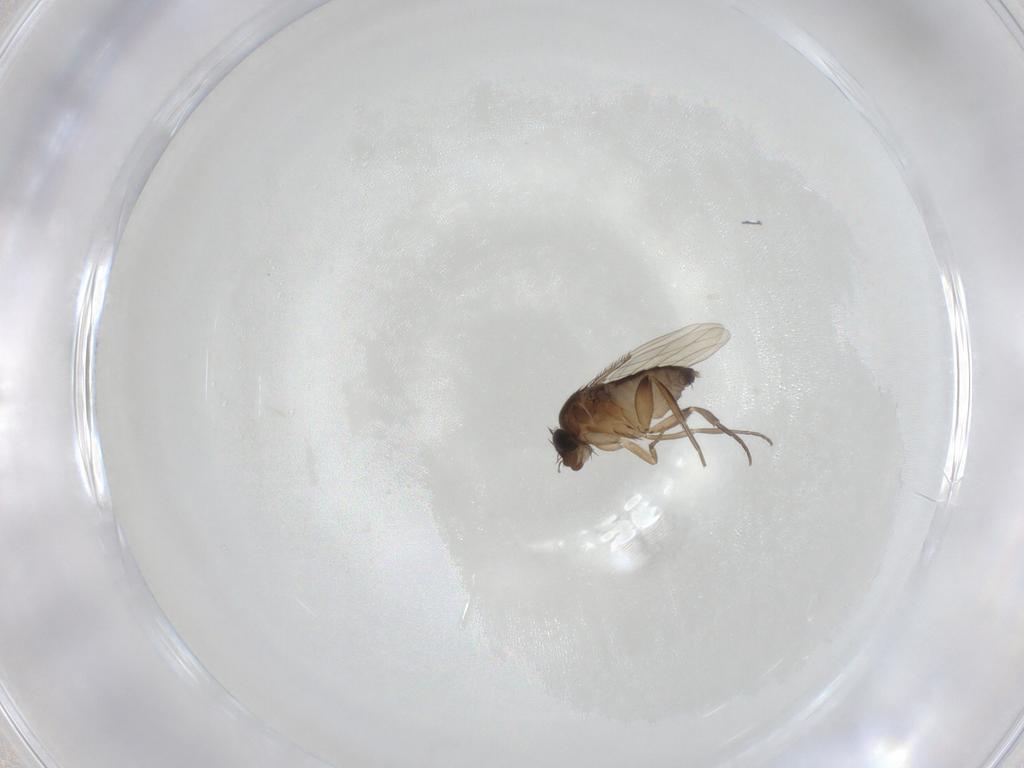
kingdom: Animalia
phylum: Arthropoda
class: Insecta
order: Diptera
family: Phoridae
